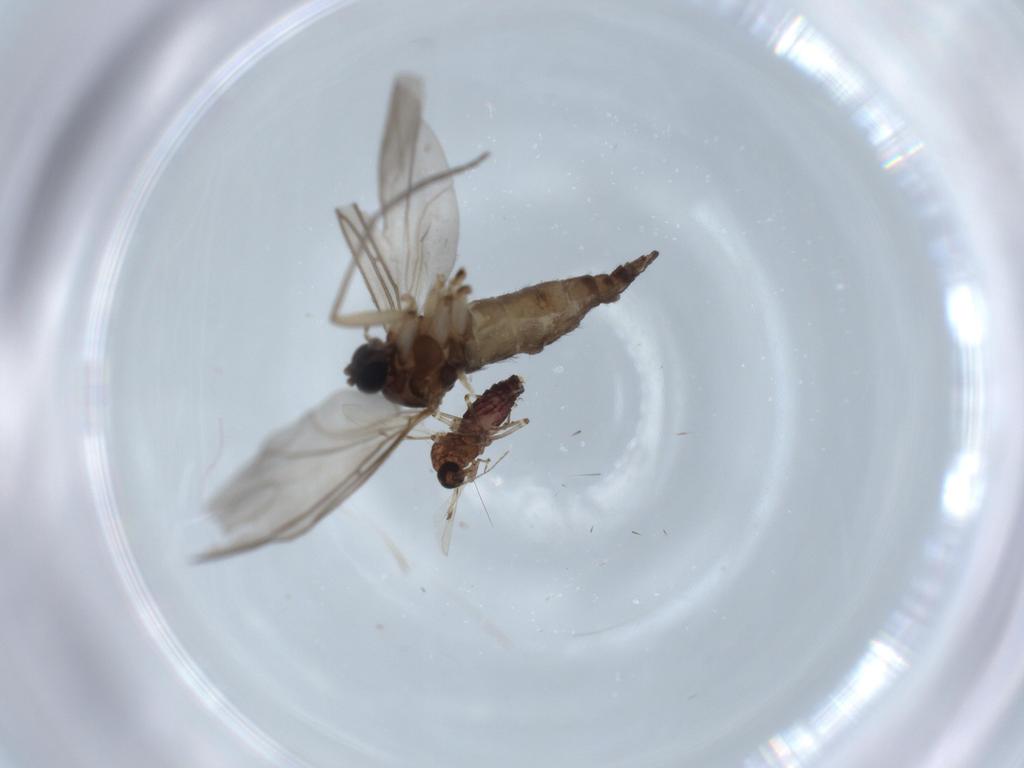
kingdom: Animalia
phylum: Arthropoda
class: Insecta
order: Diptera
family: Sciaridae
